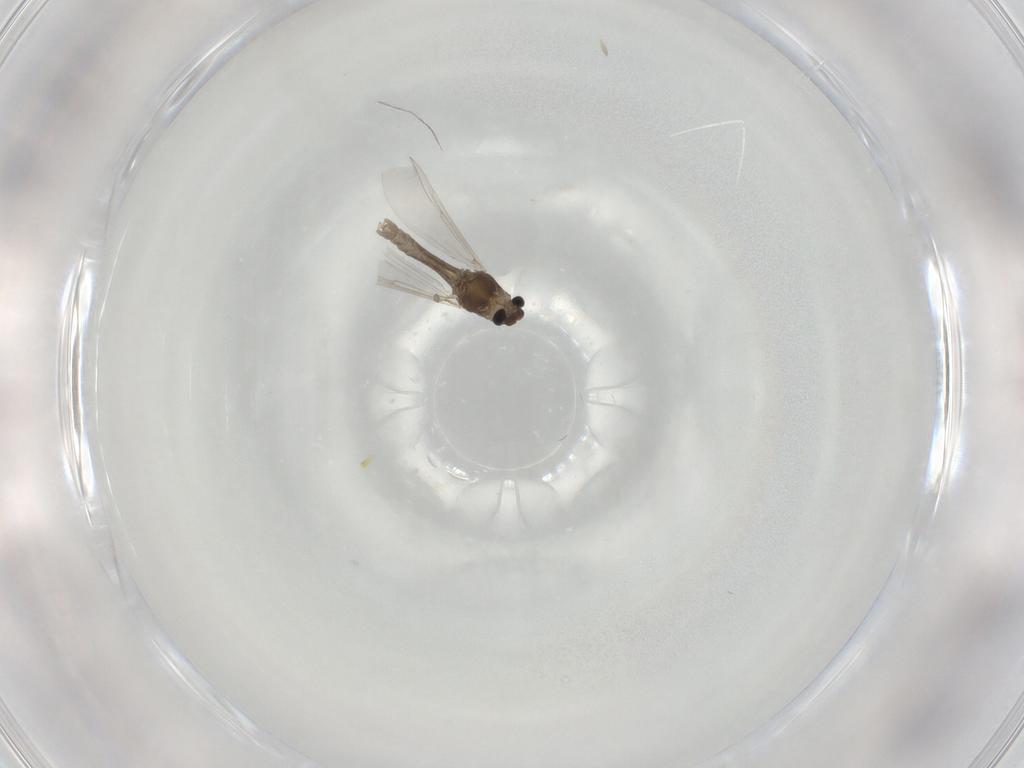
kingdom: Animalia
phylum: Arthropoda
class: Insecta
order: Diptera
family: Chironomidae
